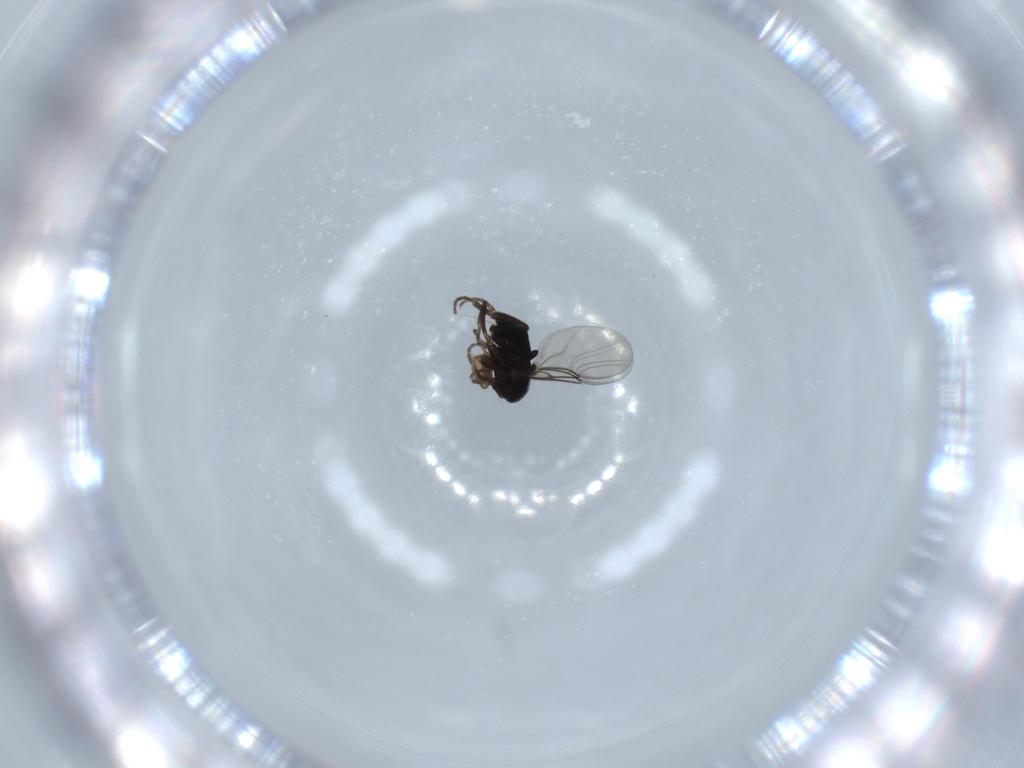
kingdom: Animalia
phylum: Arthropoda
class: Insecta
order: Diptera
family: Phoridae
